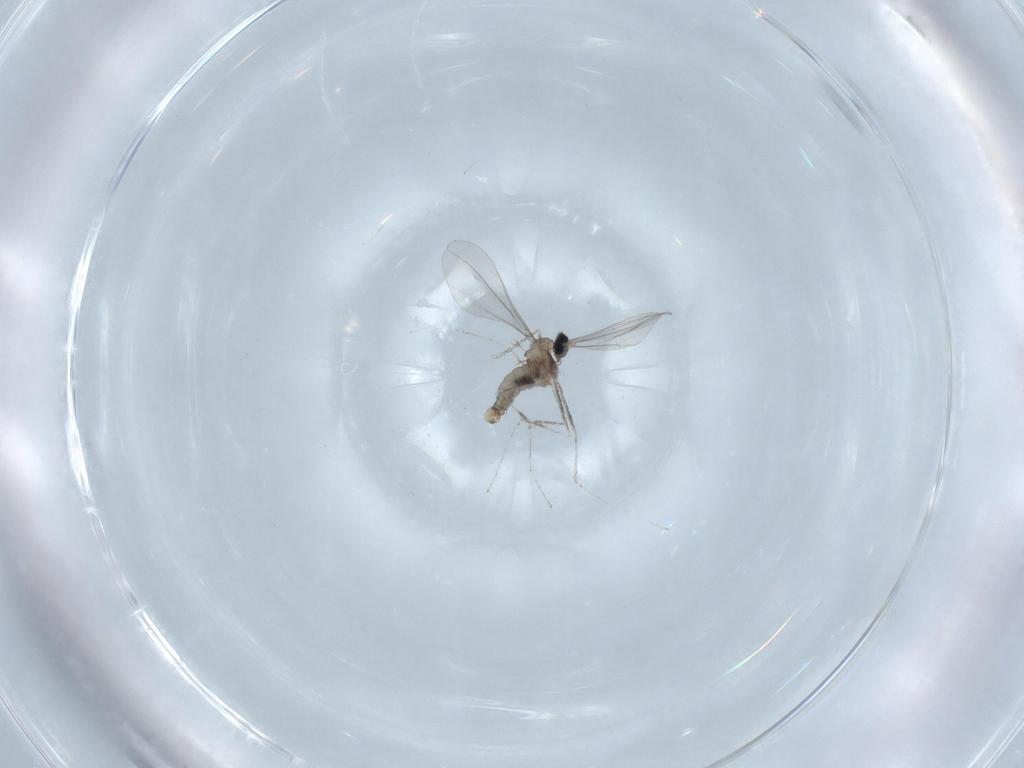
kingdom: Animalia
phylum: Arthropoda
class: Insecta
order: Diptera
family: Cecidomyiidae
